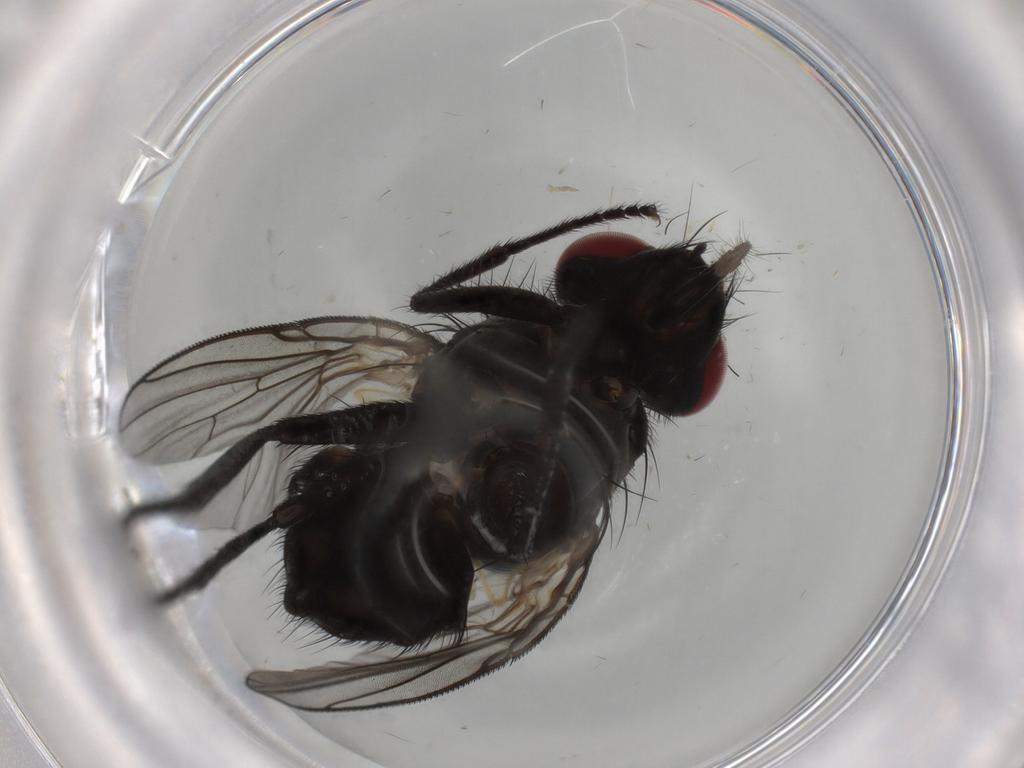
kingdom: Animalia
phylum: Arthropoda
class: Insecta
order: Diptera
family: Muscidae
